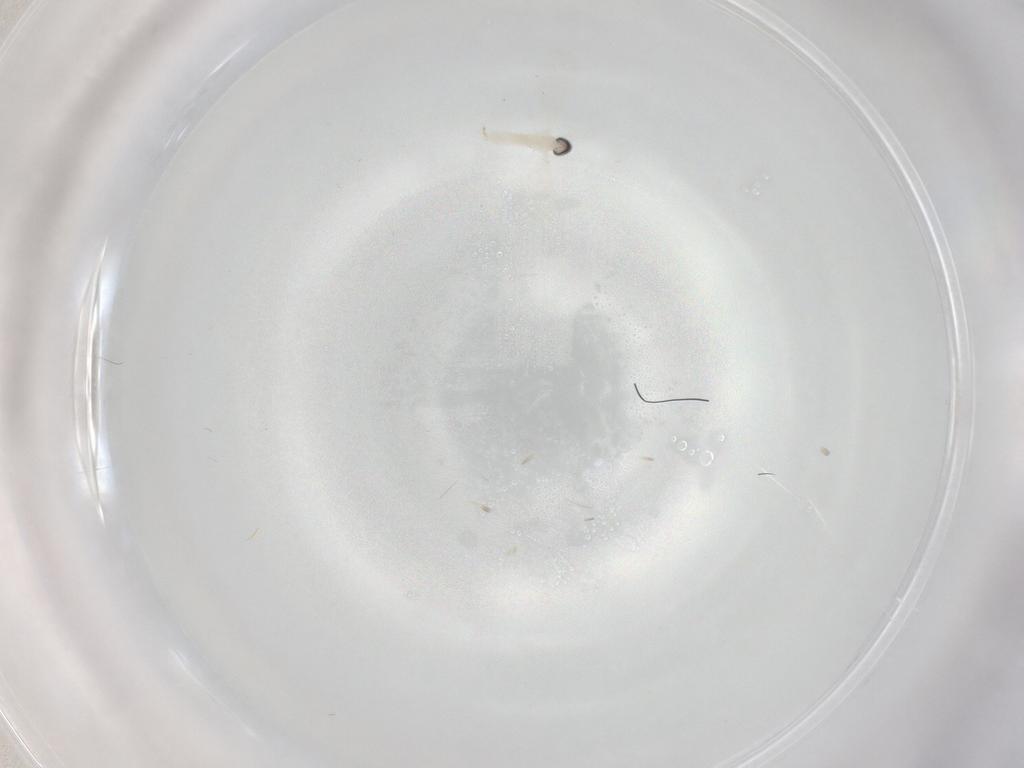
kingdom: Animalia
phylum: Arthropoda
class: Insecta
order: Diptera
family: Cecidomyiidae
